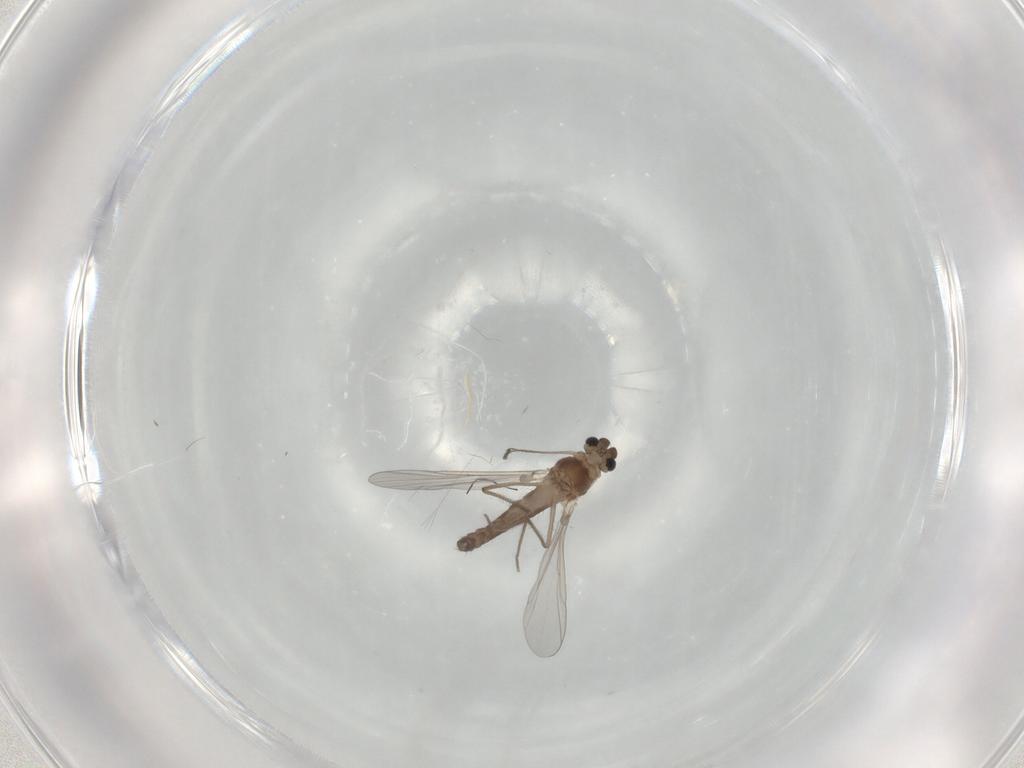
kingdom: Animalia
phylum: Arthropoda
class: Insecta
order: Diptera
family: Chironomidae
